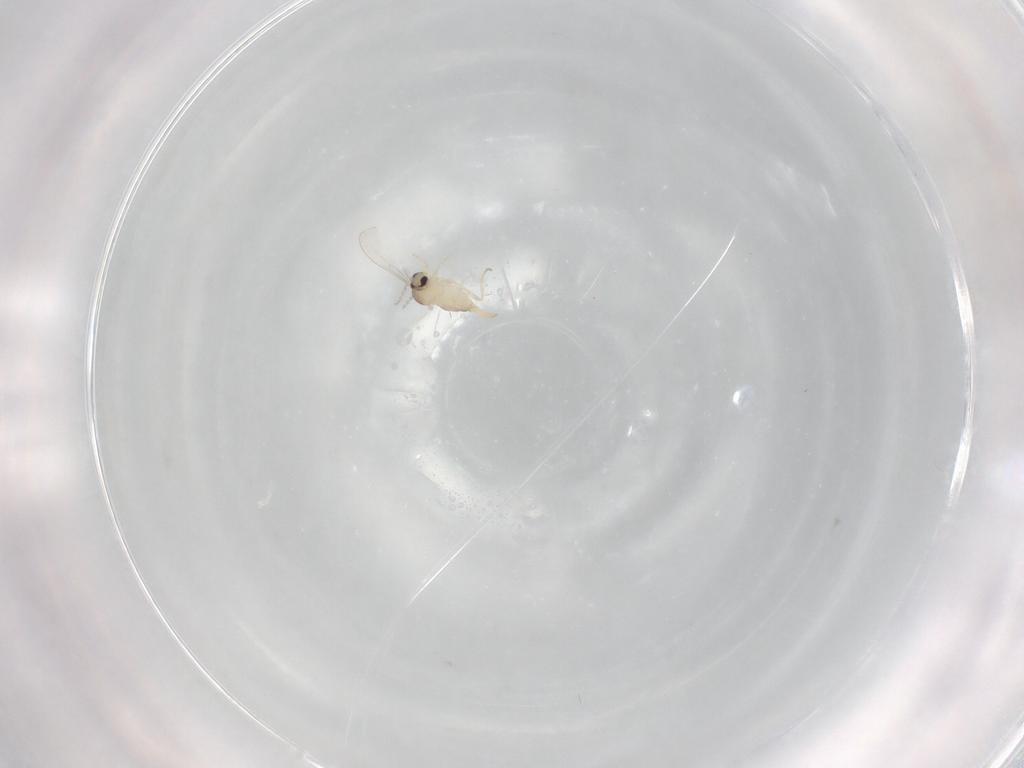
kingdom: Animalia
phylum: Arthropoda
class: Insecta
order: Diptera
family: Cecidomyiidae
